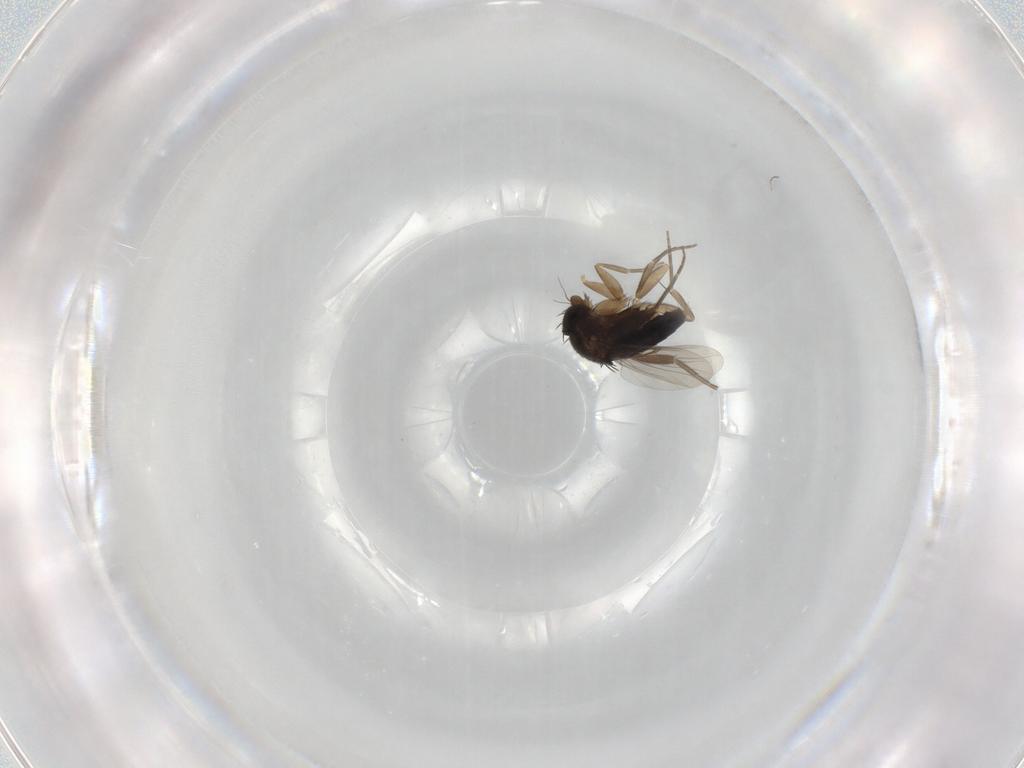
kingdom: Animalia
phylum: Arthropoda
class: Insecta
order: Diptera
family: Phoridae
